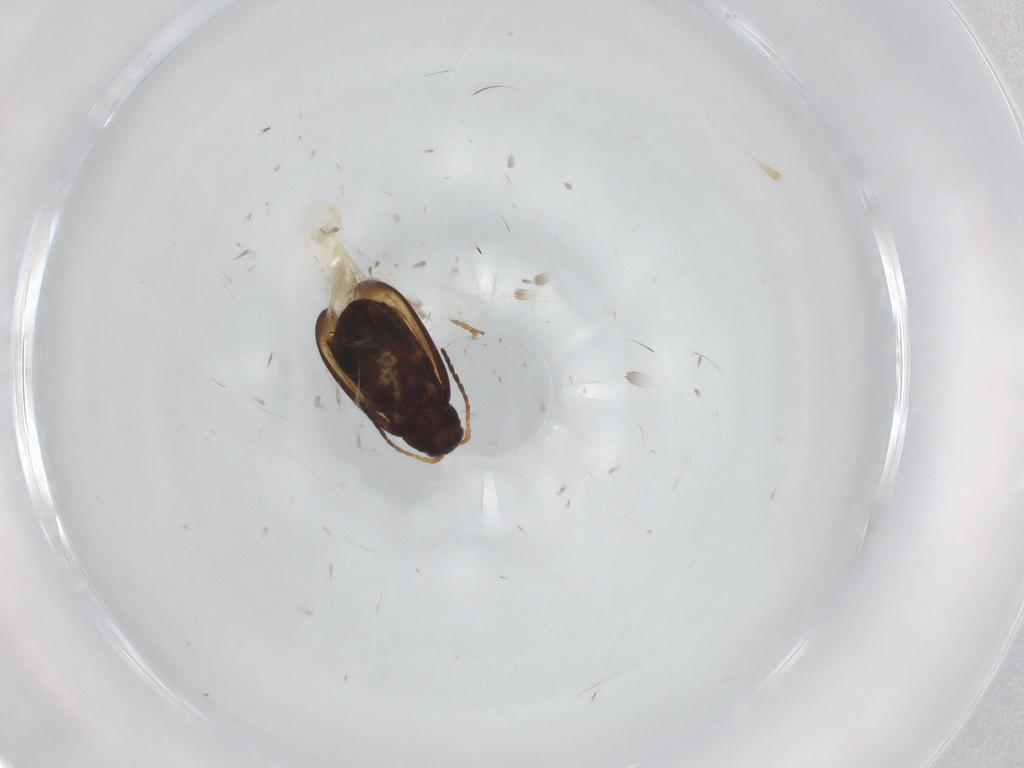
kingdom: Animalia
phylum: Arthropoda
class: Insecta
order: Coleoptera
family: Chrysomelidae
